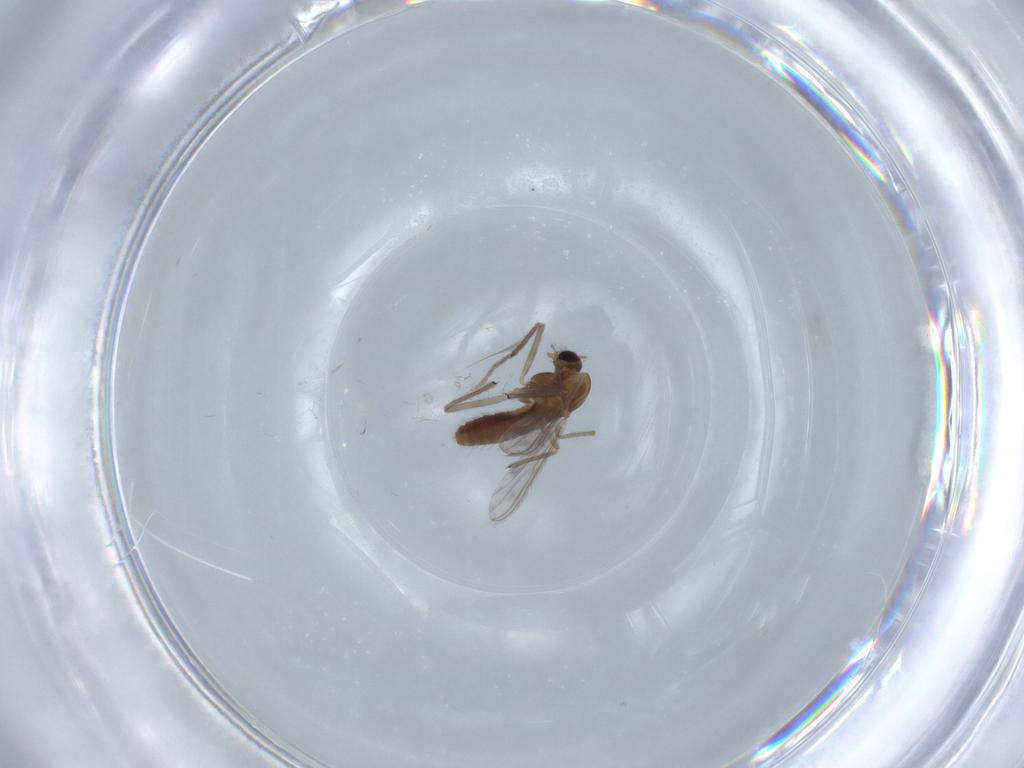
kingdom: Animalia
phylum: Arthropoda
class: Insecta
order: Diptera
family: Chironomidae
